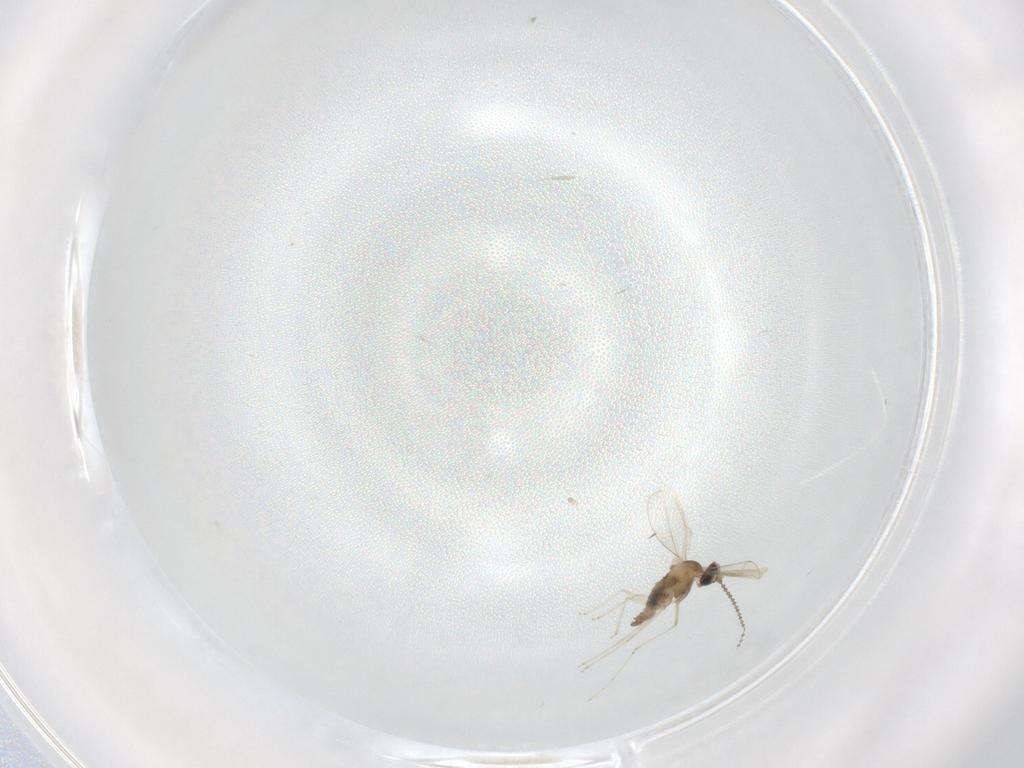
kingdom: Animalia
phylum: Arthropoda
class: Insecta
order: Diptera
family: Cecidomyiidae
